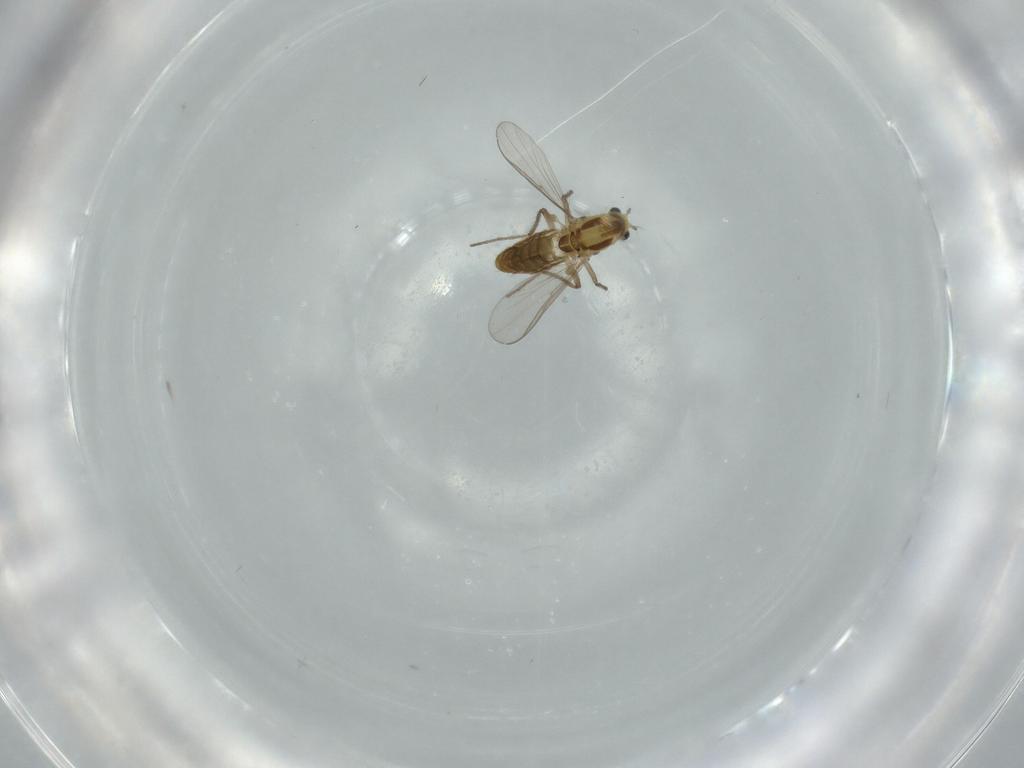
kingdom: Animalia
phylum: Arthropoda
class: Insecta
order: Diptera
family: Chironomidae
